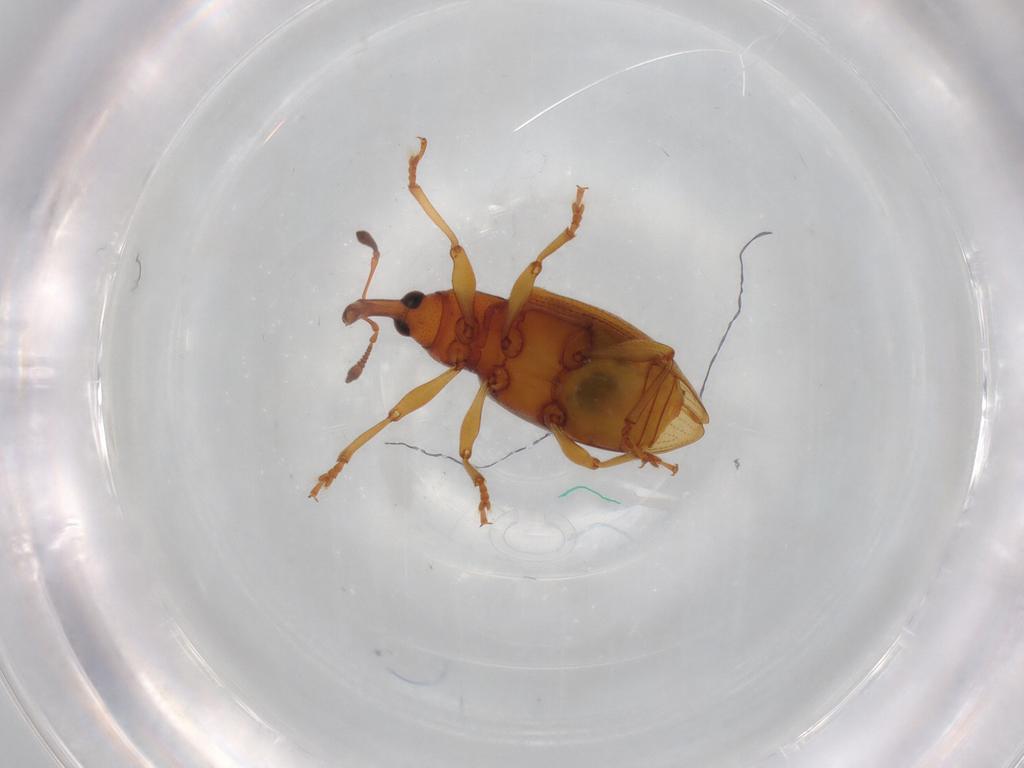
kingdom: Animalia
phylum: Arthropoda
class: Insecta
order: Coleoptera
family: Curculionidae
